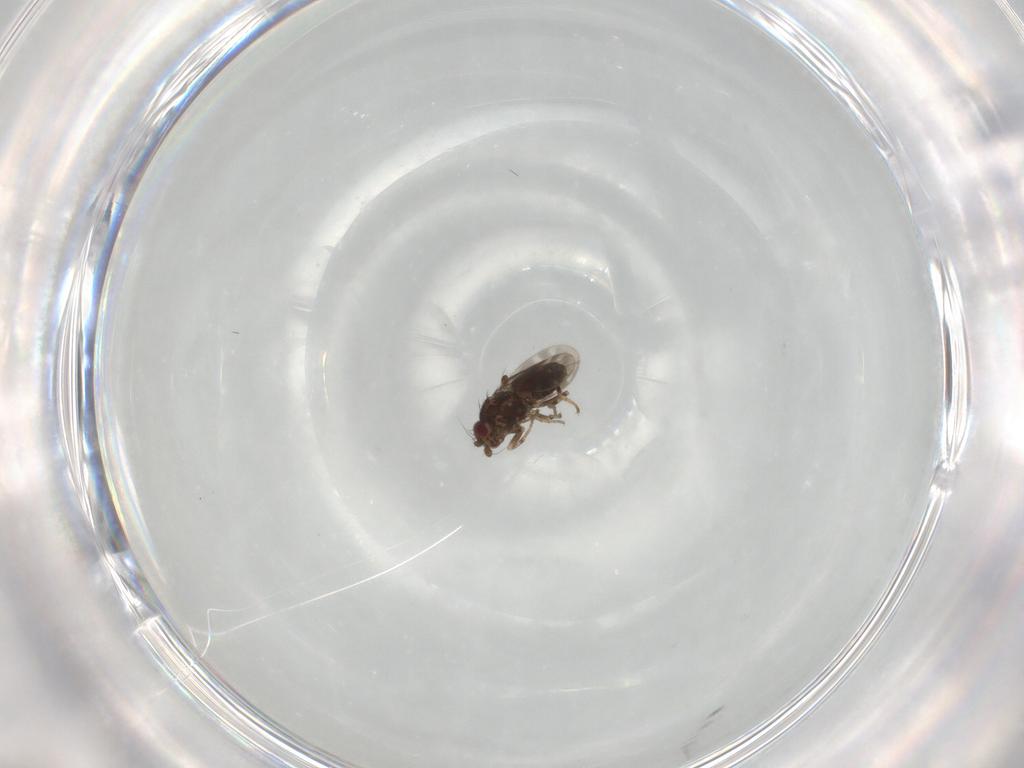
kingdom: Animalia
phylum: Arthropoda
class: Insecta
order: Diptera
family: Sphaeroceridae
